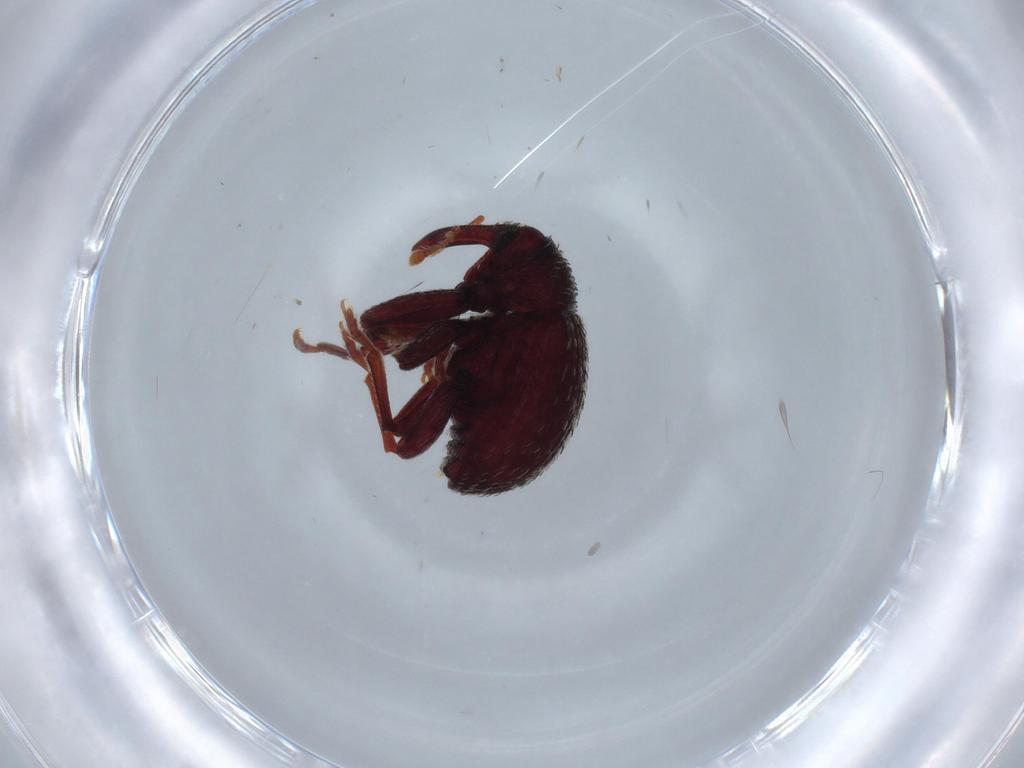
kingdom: Animalia
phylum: Arthropoda
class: Insecta
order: Coleoptera
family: Curculionidae
